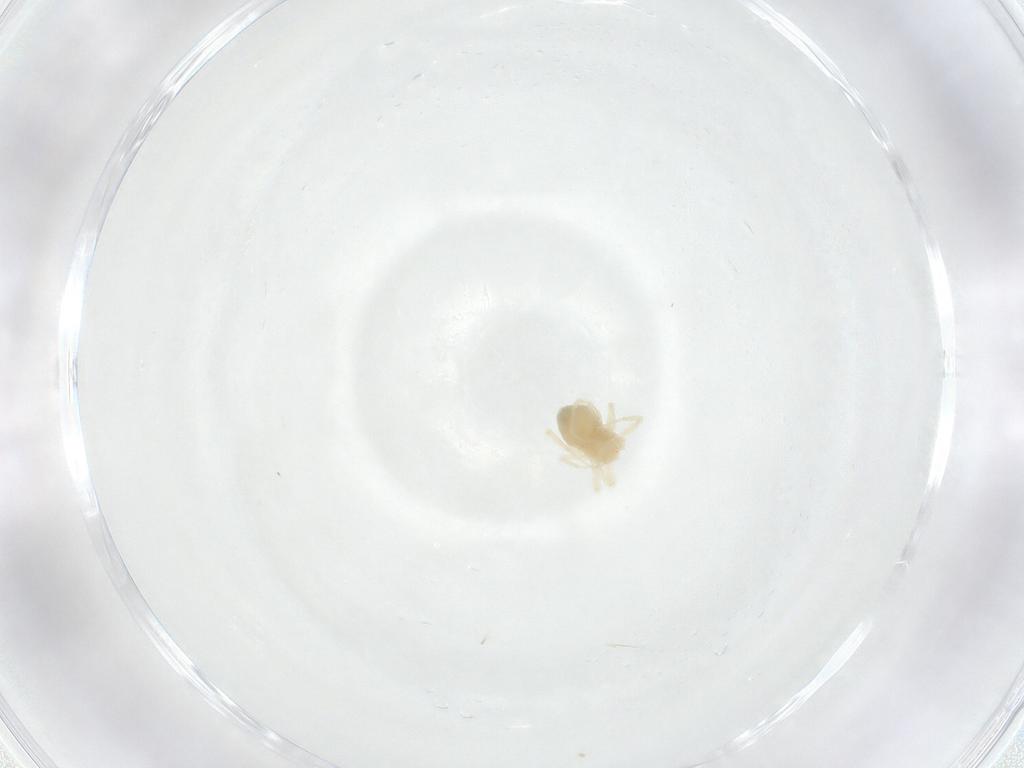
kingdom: Animalia
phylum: Arthropoda
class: Arachnida
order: Trombidiformes
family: Anystidae
